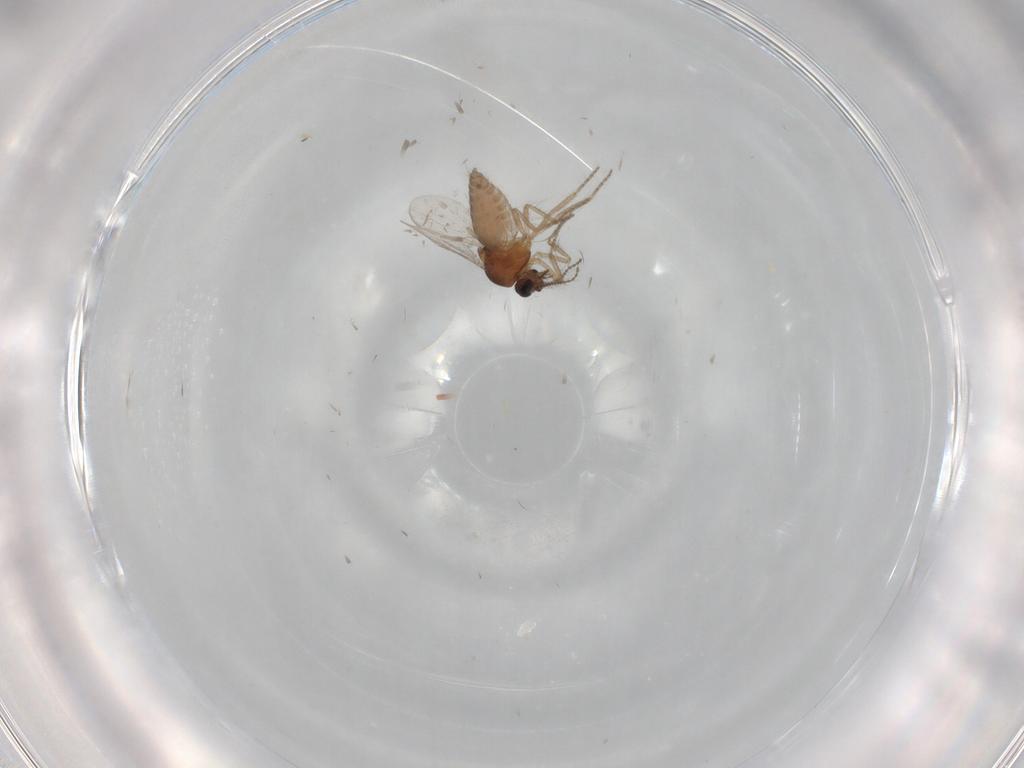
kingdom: Animalia
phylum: Arthropoda
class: Insecta
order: Diptera
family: Ceratopogonidae
